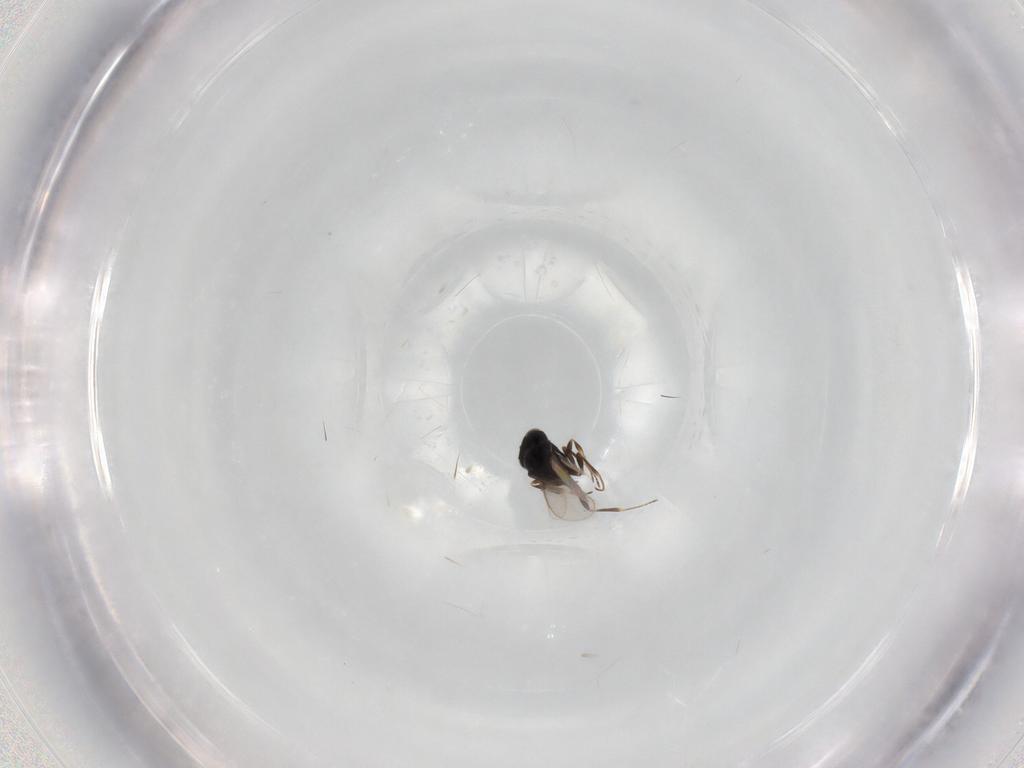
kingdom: Animalia
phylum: Arthropoda
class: Insecta
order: Hymenoptera
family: Scelionidae
